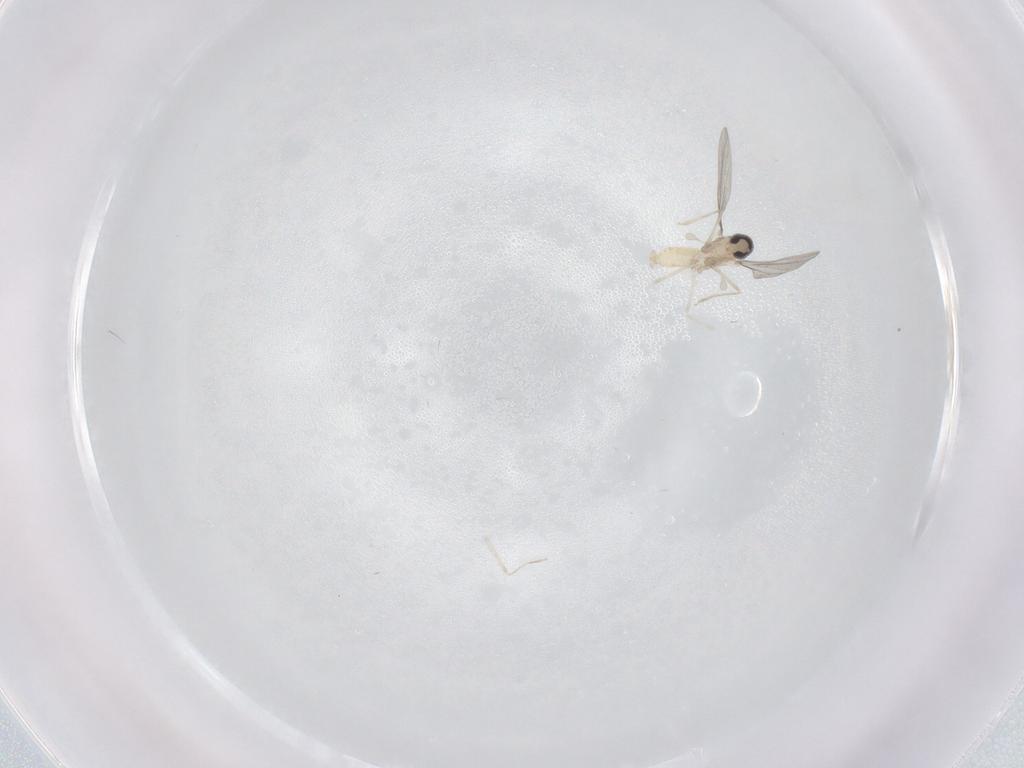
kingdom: Animalia
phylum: Arthropoda
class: Insecta
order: Diptera
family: Cecidomyiidae
